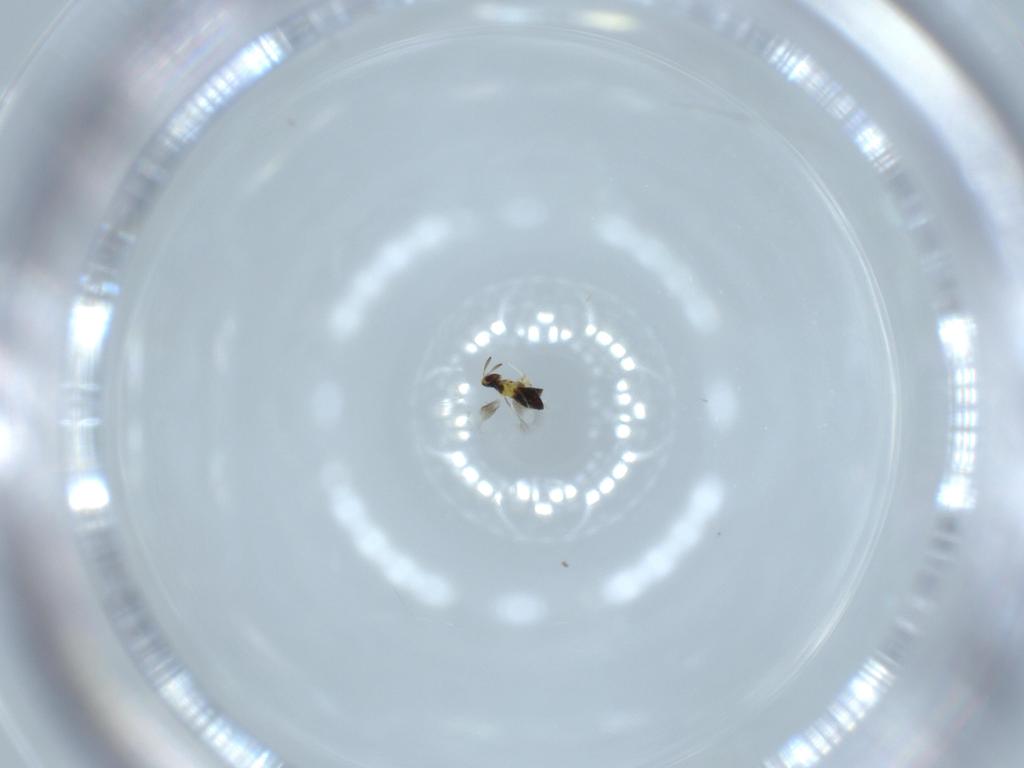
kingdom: Animalia
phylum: Arthropoda
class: Insecta
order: Hymenoptera
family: Signiphoridae
